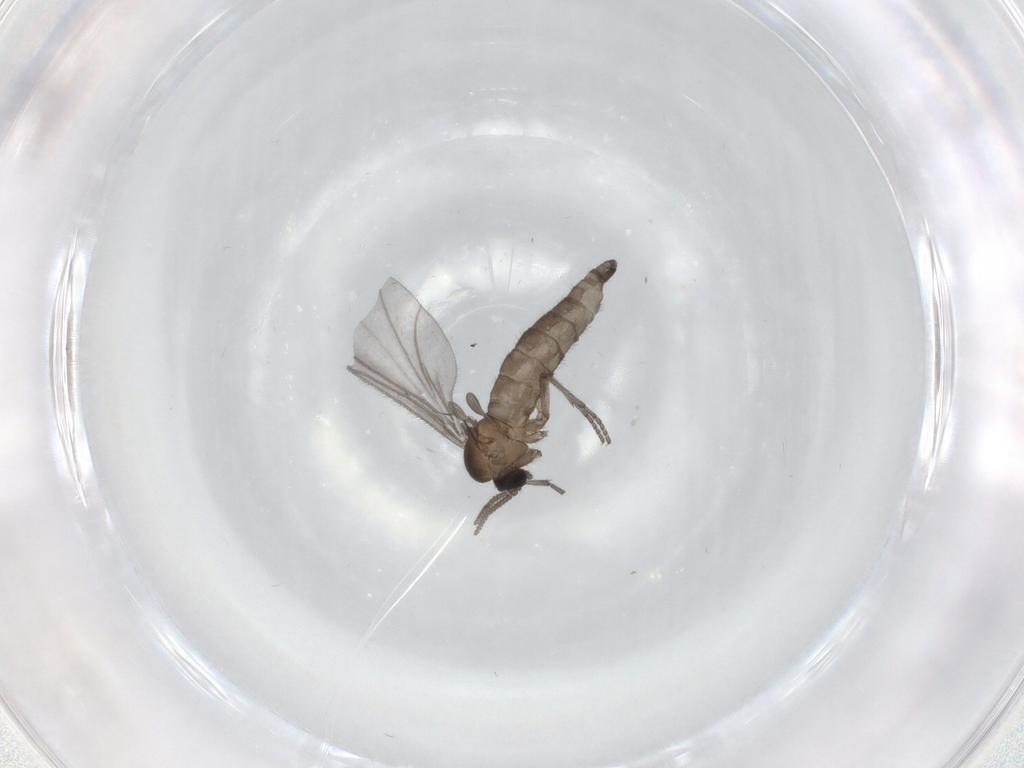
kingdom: Animalia
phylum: Arthropoda
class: Insecta
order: Diptera
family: Sciaridae
